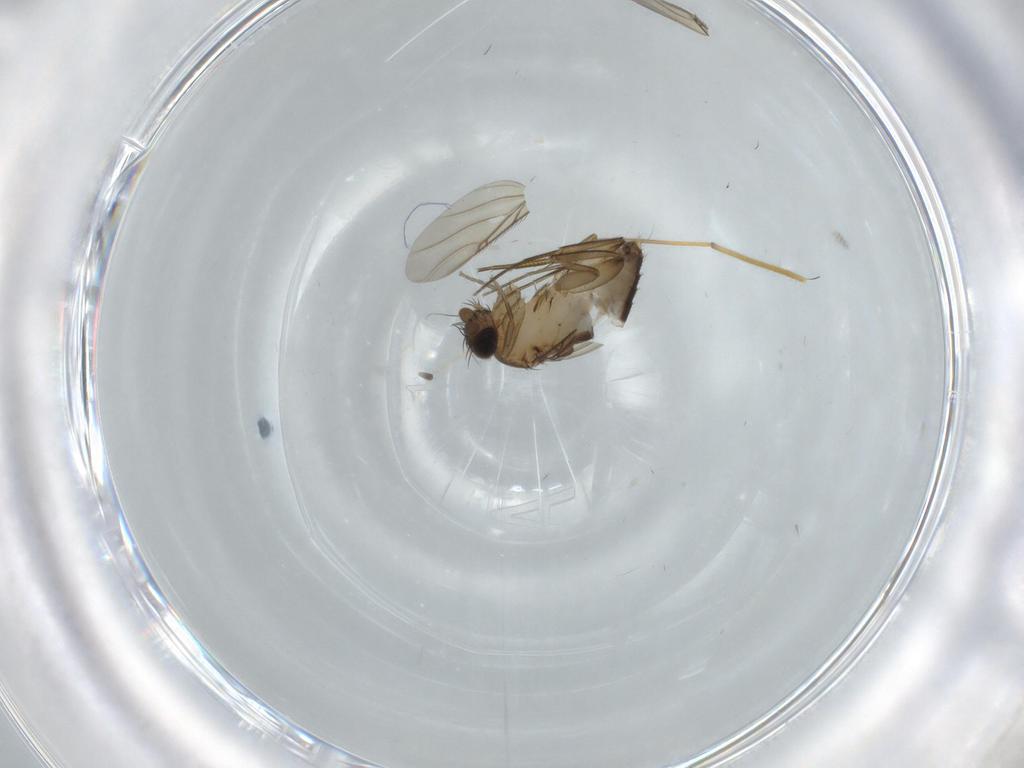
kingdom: Animalia
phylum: Arthropoda
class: Insecta
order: Diptera
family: Phoridae
